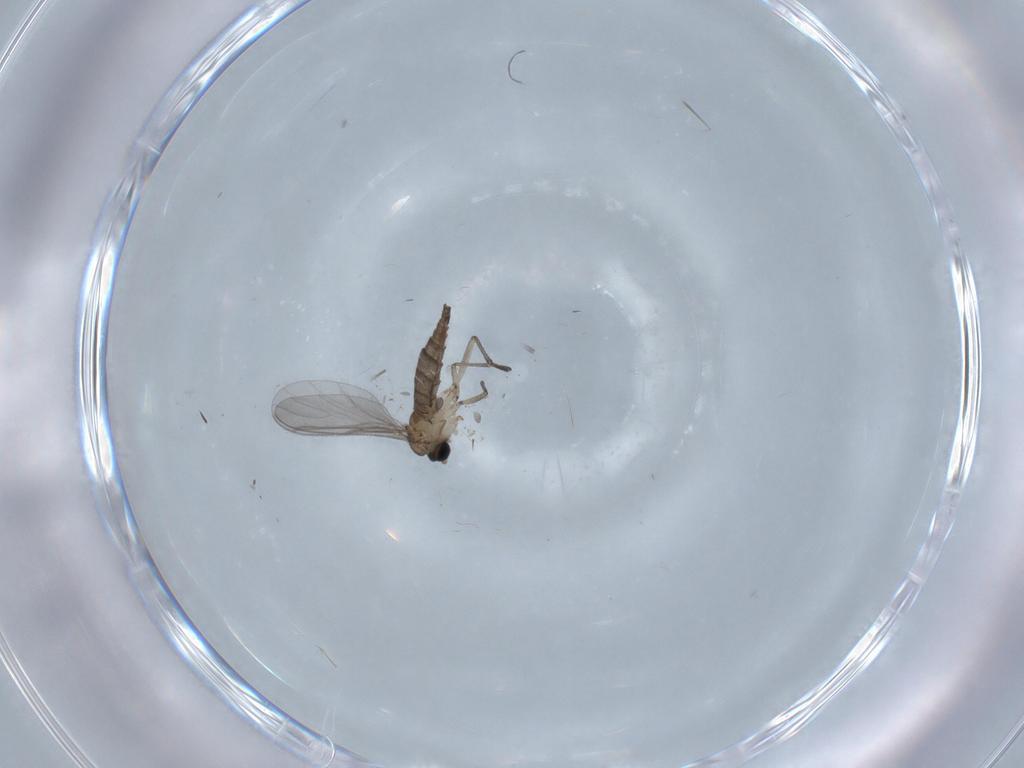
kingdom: Animalia
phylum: Arthropoda
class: Insecta
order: Diptera
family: Sciaridae
